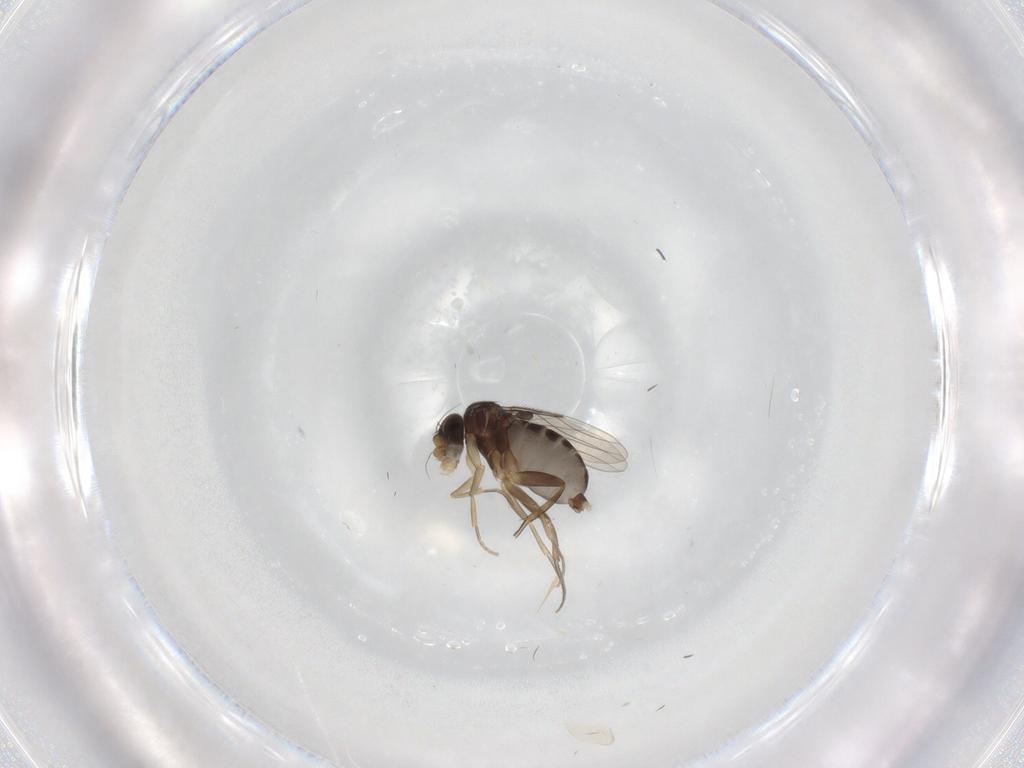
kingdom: Animalia
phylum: Arthropoda
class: Insecta
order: Diptera
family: Phoridae
